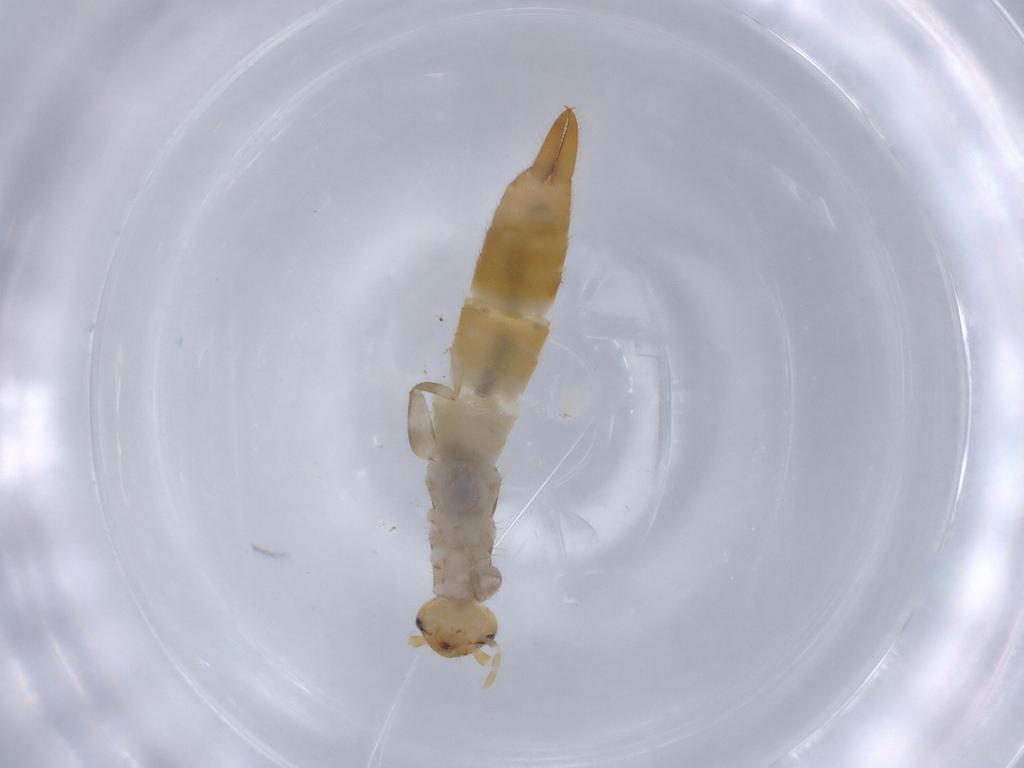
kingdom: Animalia
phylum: Arthropoda
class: Insecta
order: Dermaptera
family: Forficulidae
